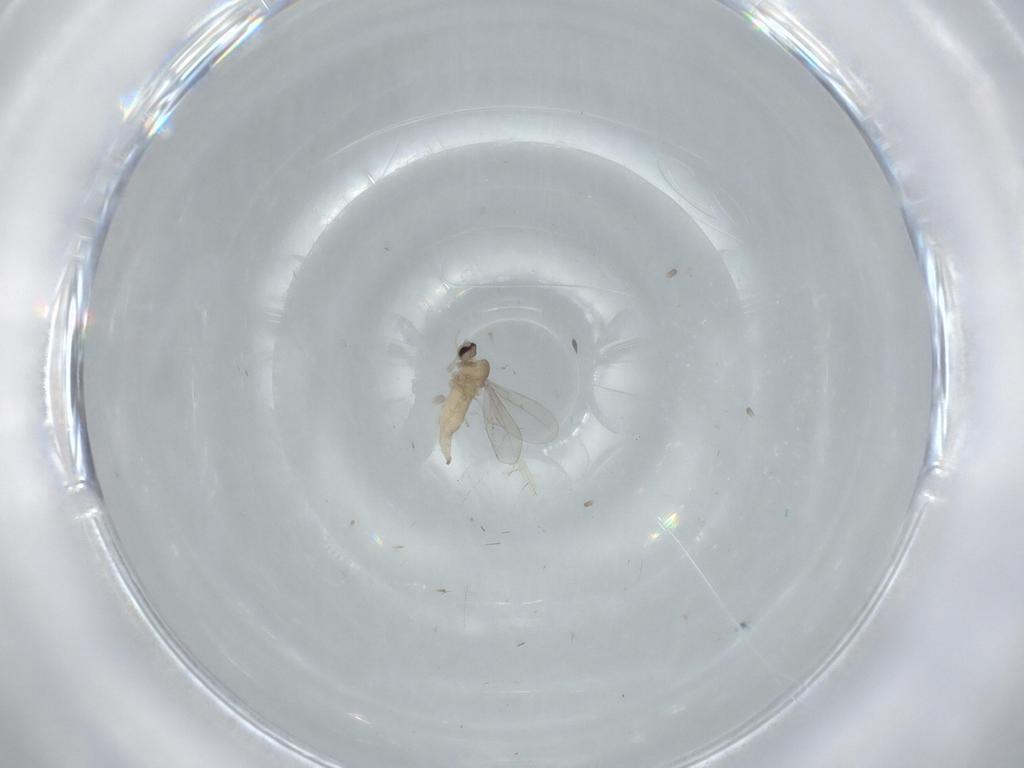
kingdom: Animalia
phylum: Arthropoda
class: Insecta
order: Diptera
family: Cecidomyiidae
